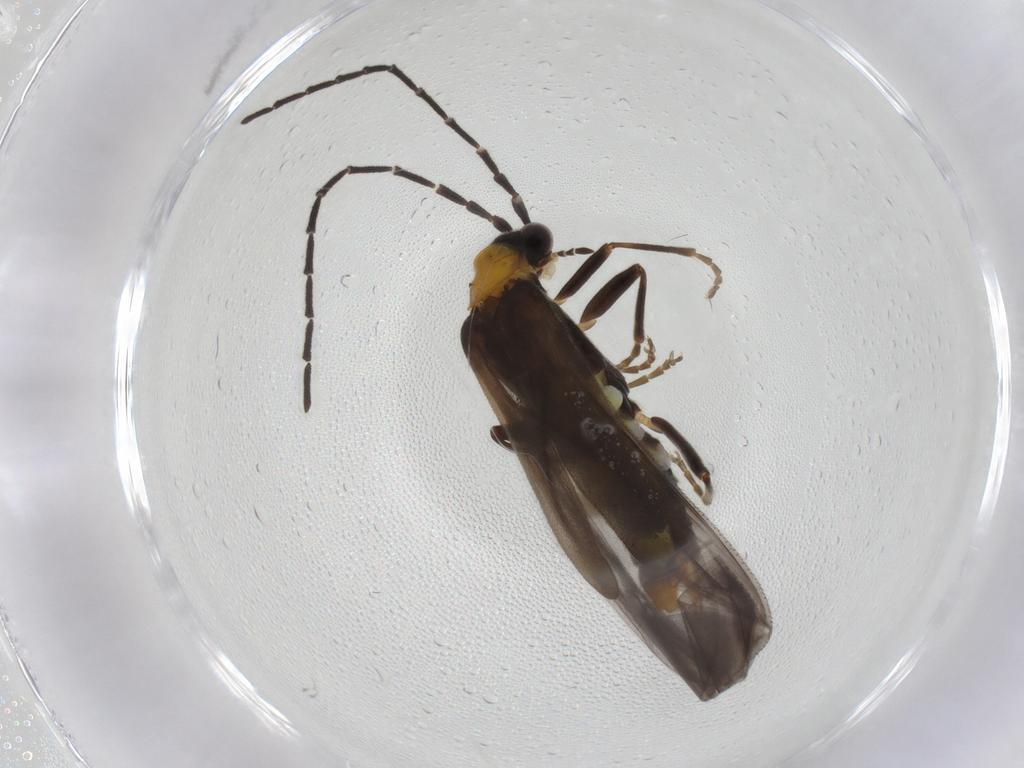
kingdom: Animalia
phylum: Arthropoda
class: Insecta
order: Coleoptera
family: Cantharidae
